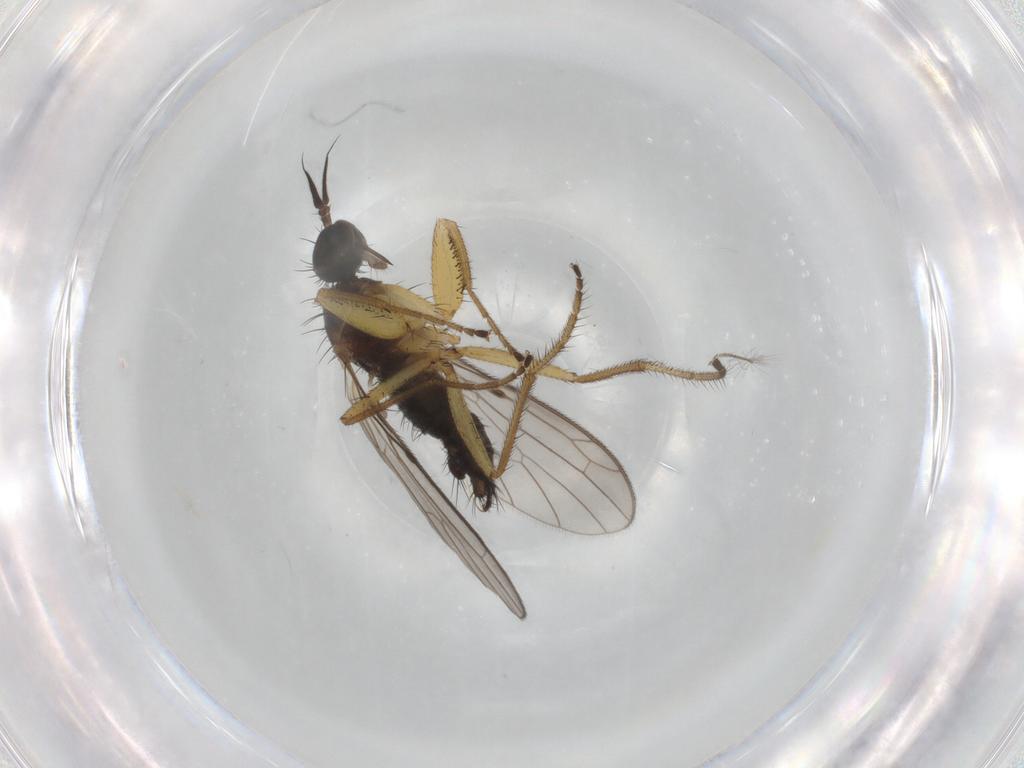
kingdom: Animalia
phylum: Arthropoda
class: Insecta
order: Diptera
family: Empididae
